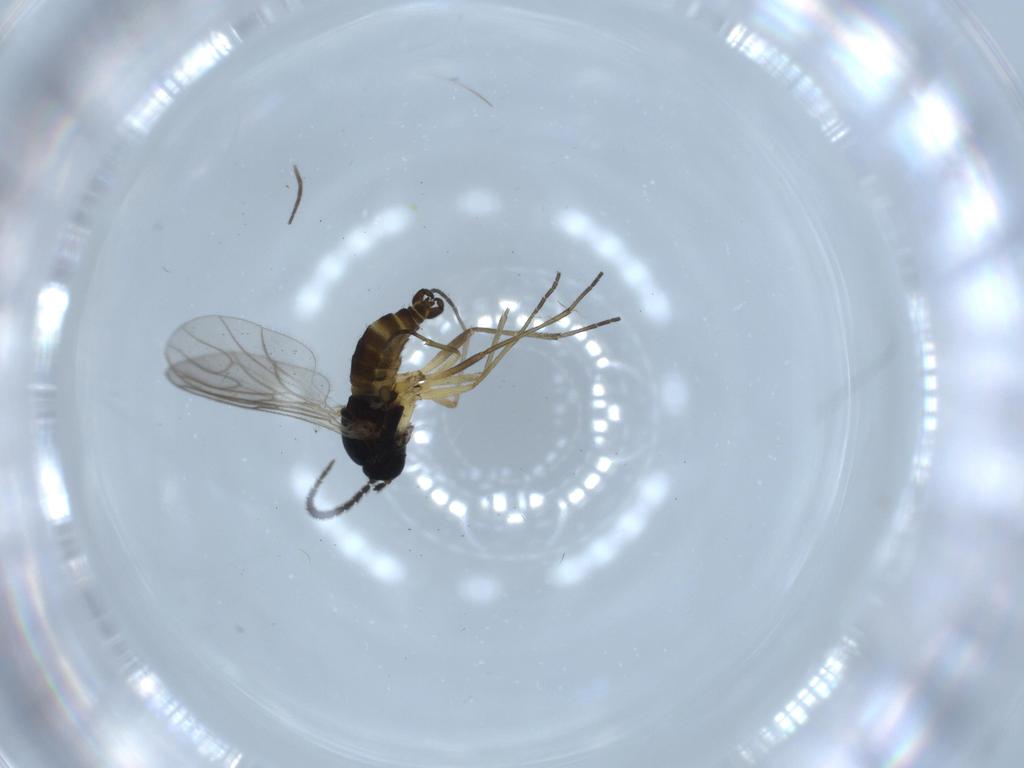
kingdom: Animalia
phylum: Arthropoda
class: Insecta
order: Diptera
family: Sciaridae
